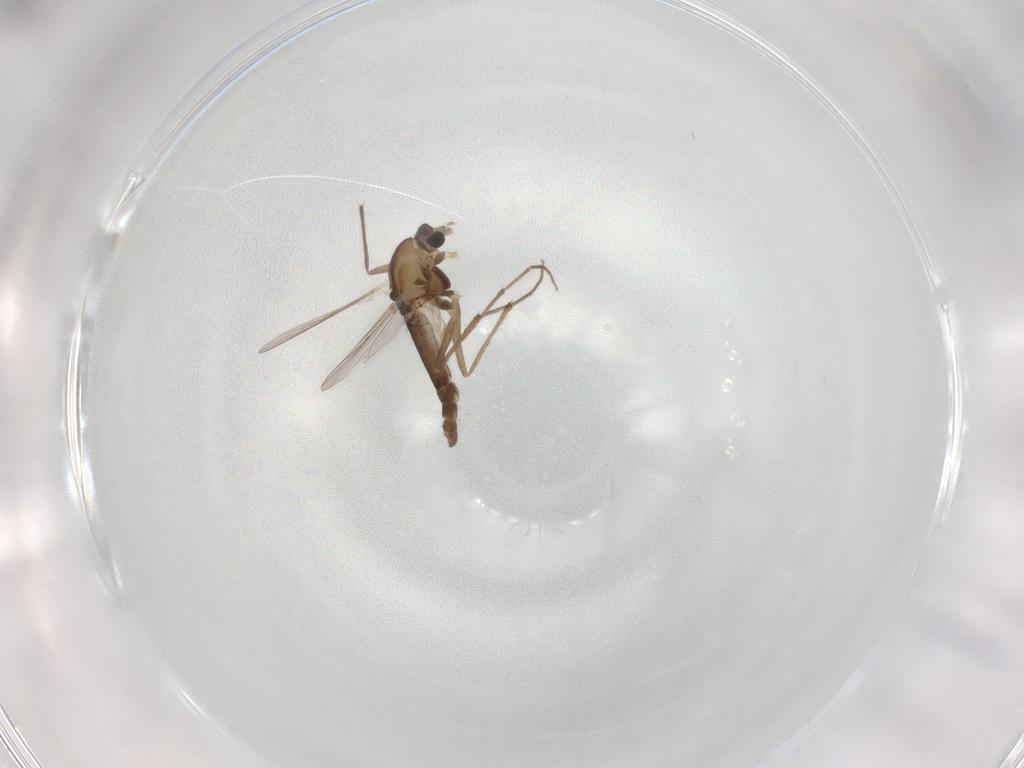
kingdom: Animalia
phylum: Arthropoda
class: Insecta
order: Diptera
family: Chironomidae
